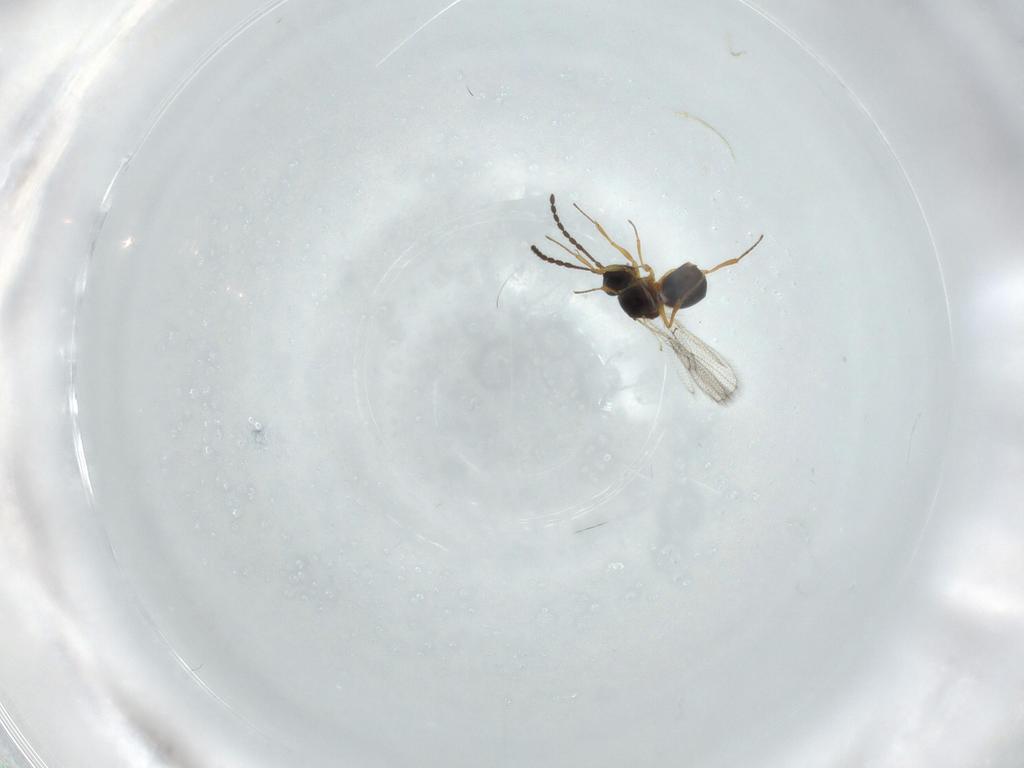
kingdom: Animalia
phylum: Arthropoda
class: Insecta
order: Hymenoptera
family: Figitidae
